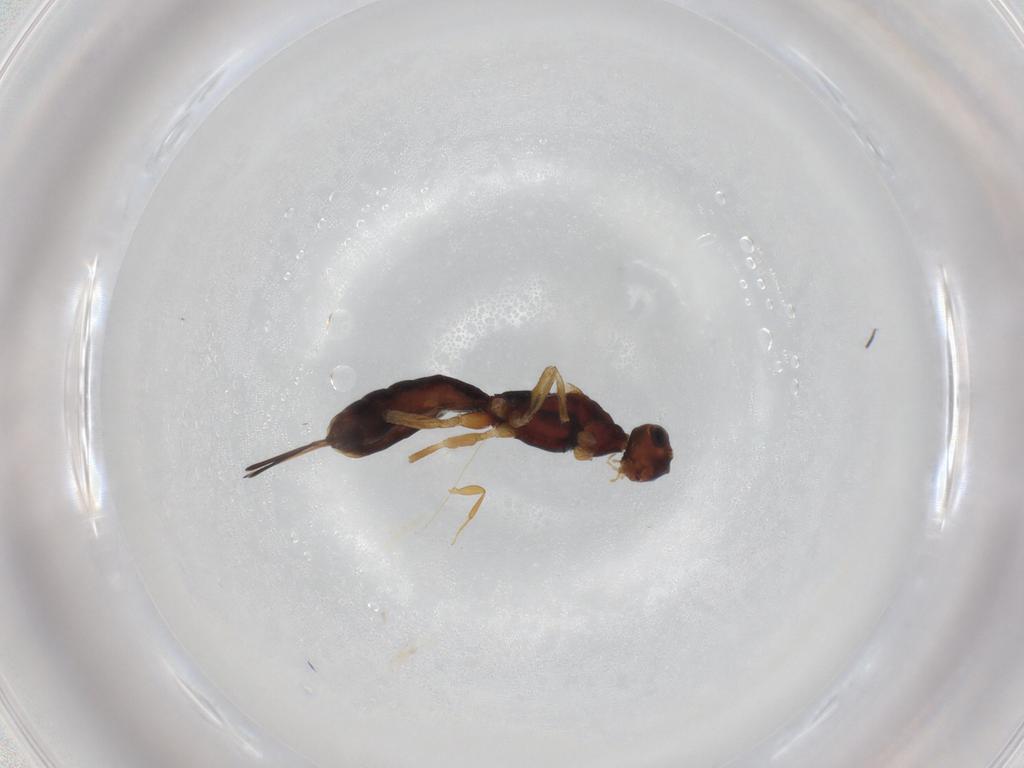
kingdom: Animalia
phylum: Arthropoda
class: Insecta
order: Hymenoptera
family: Braconidae
